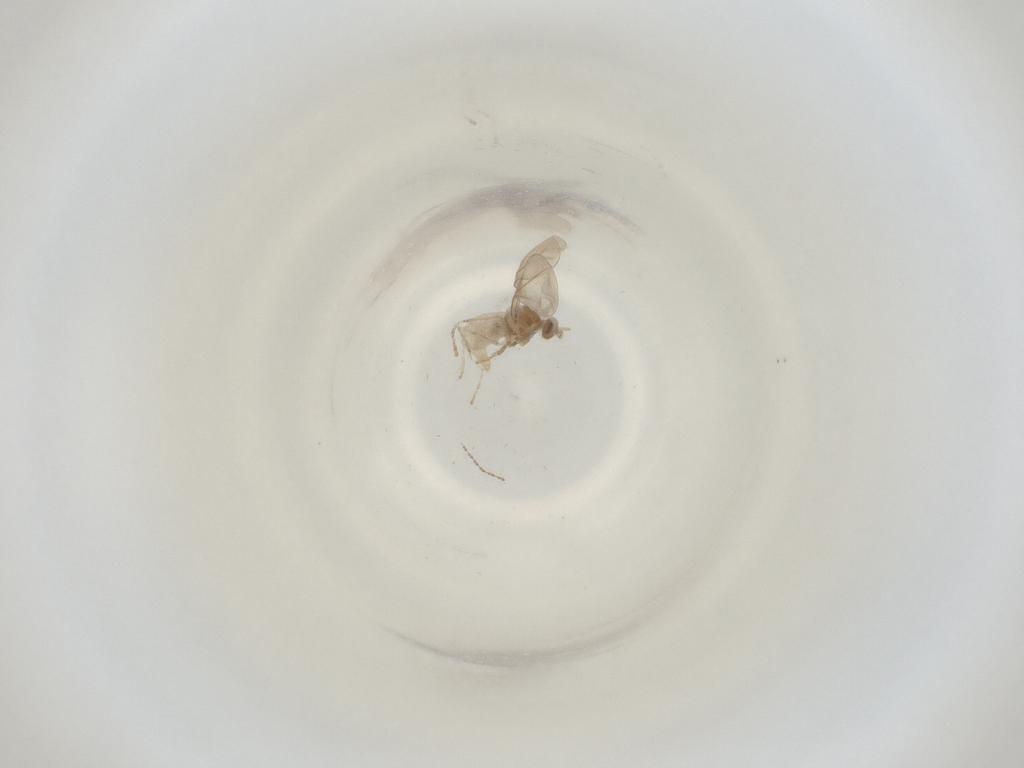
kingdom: Animalia
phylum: Arthropoda
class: Insecta
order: Diptera
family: Cecidomyiidae
